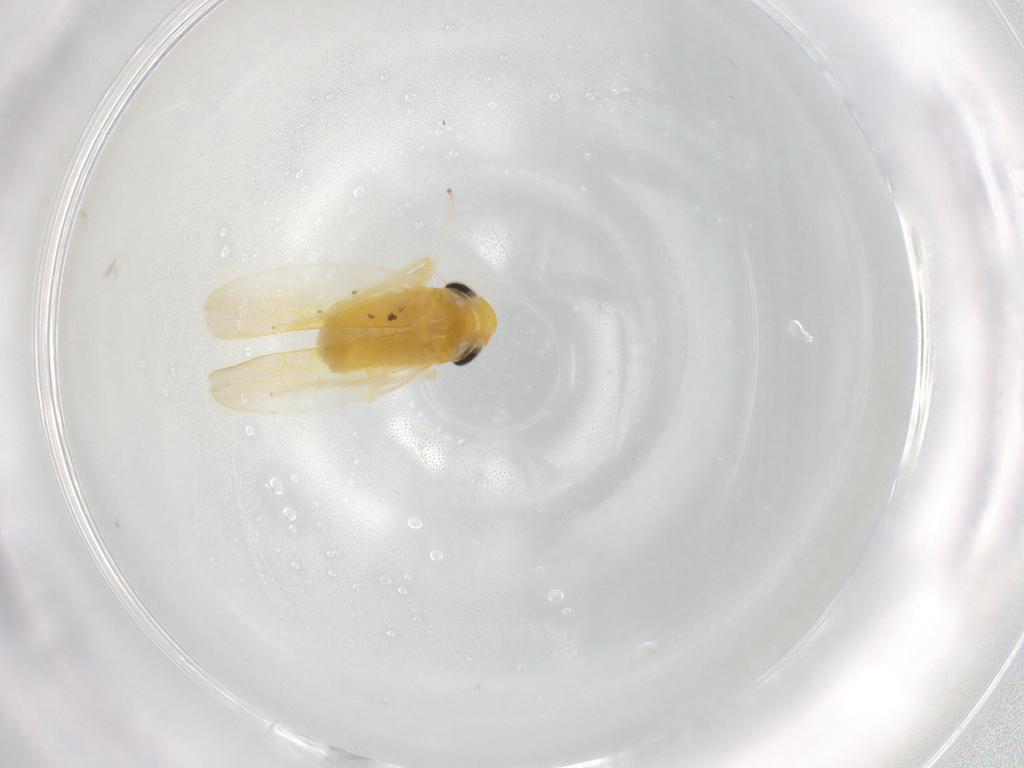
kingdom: Animalia
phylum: Arthropoda
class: Insecta
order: Hemiptera
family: Cicadellidae
